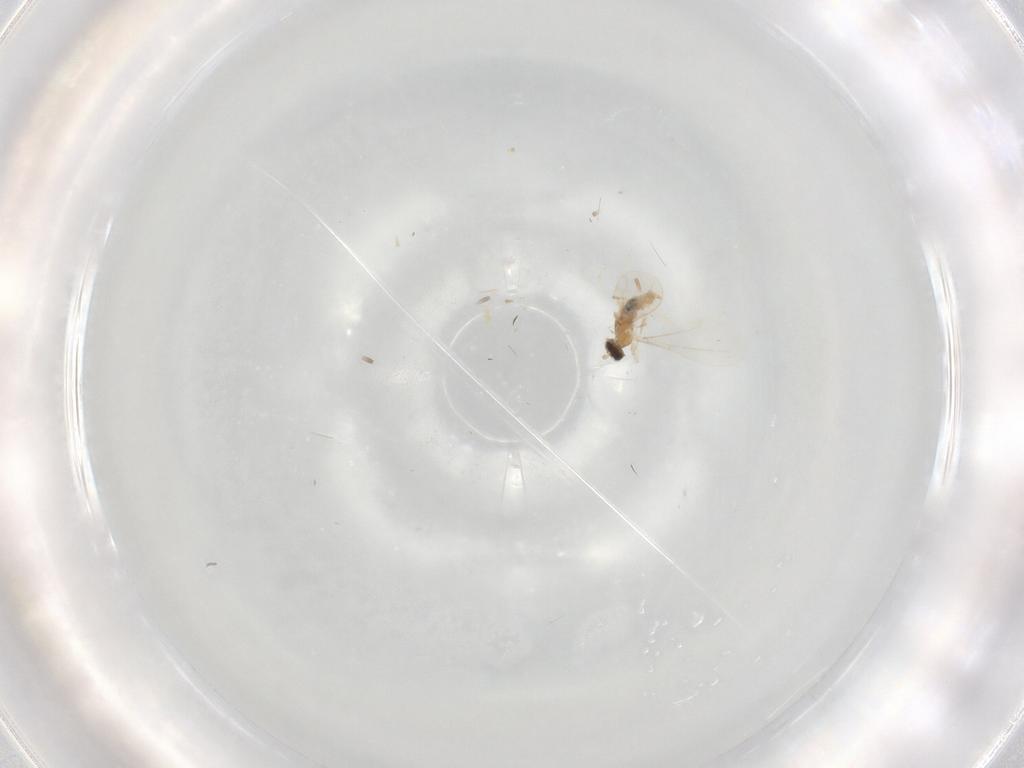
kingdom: Animalia
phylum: Arthropoda
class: Insecta
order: Diptera
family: Cecidomyiidae
